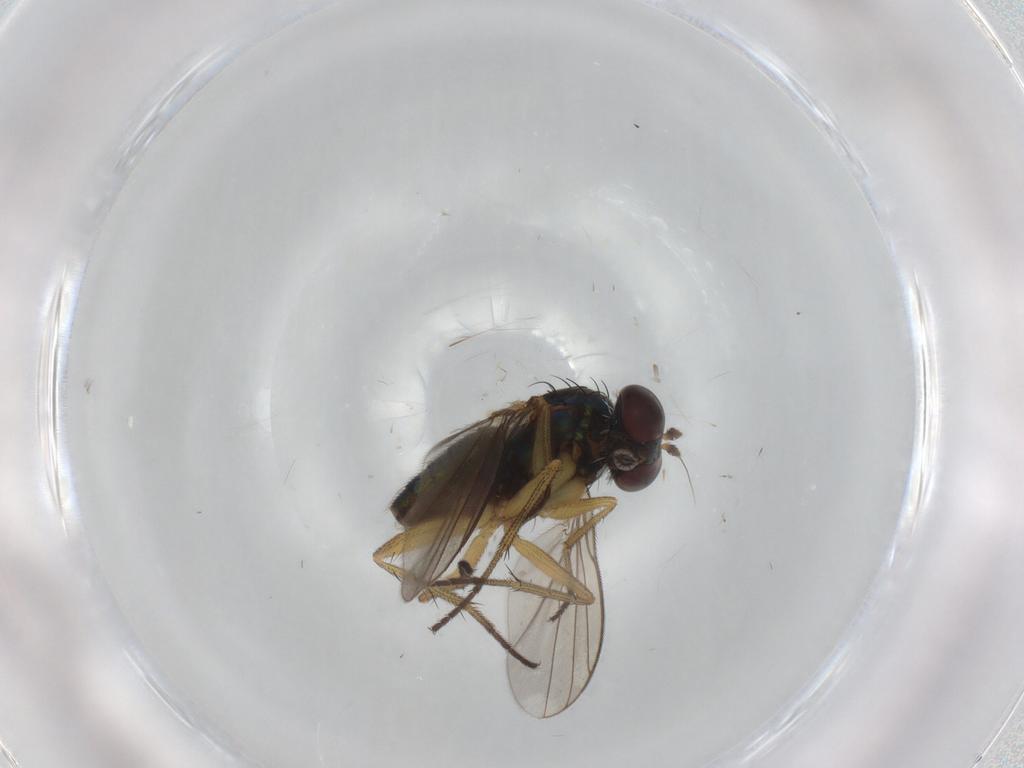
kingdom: Animalia
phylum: Arthropoda
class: Insecta
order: Diptera
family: Dolichopodidae
